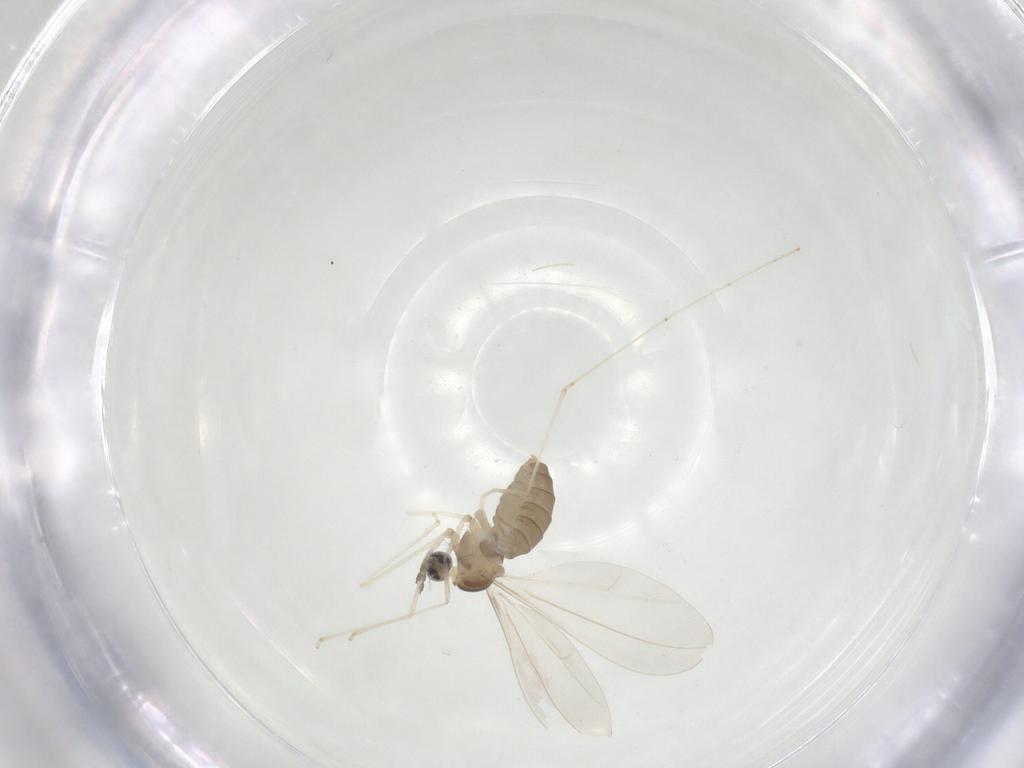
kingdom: Animalia
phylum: Arthropoda
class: Insecta
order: Diptera
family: Cecidomyiidae
